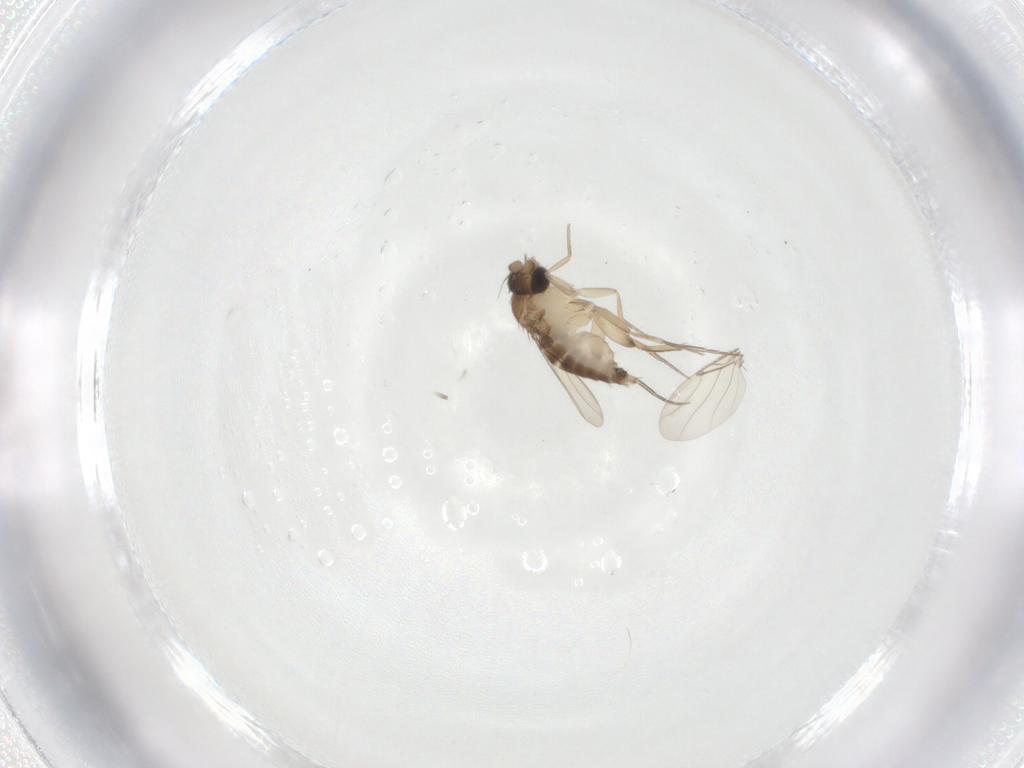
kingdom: Animalia
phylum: Arthropoda
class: Insecta
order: Diptera
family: Phoridae
